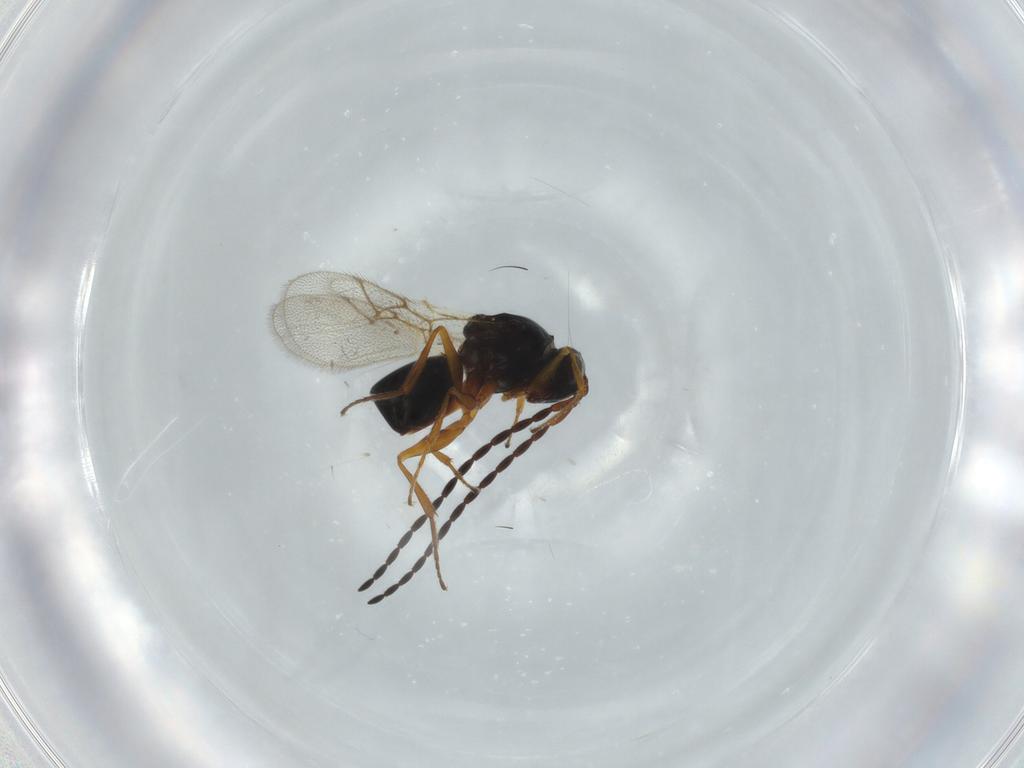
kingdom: Animalia
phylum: Arthropoda
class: Insecta
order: Hymenoptera
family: Figitidae
